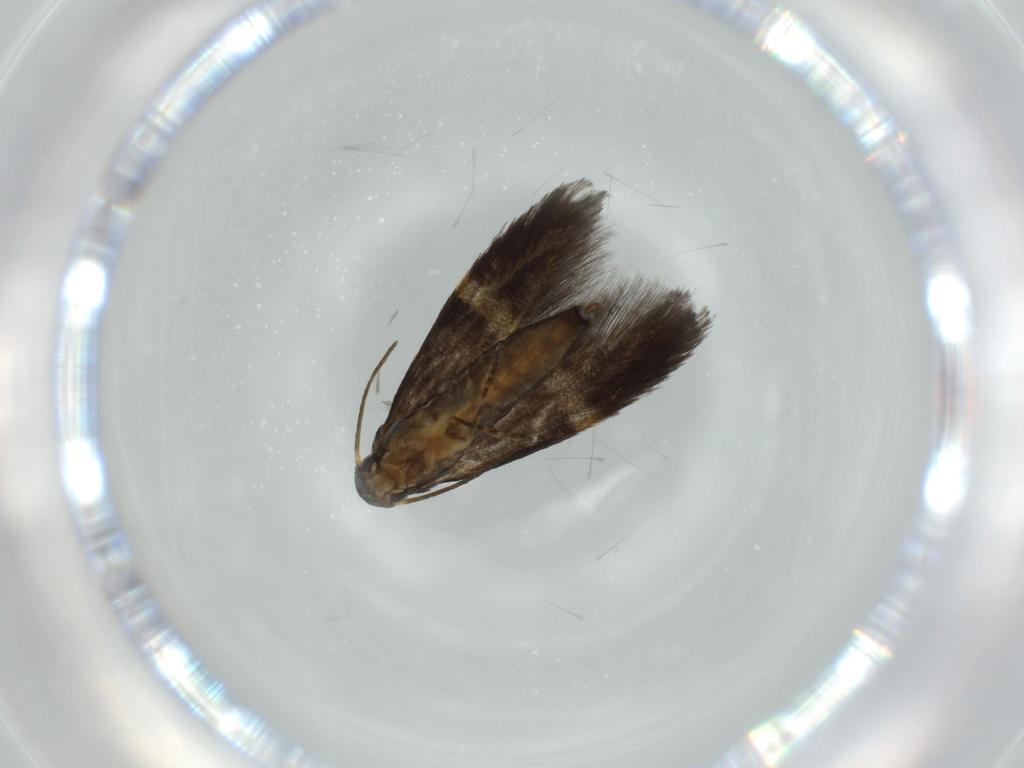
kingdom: Animalia
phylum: Arthropoda
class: Insecta
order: Lepidoptera
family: Heliozelidae
